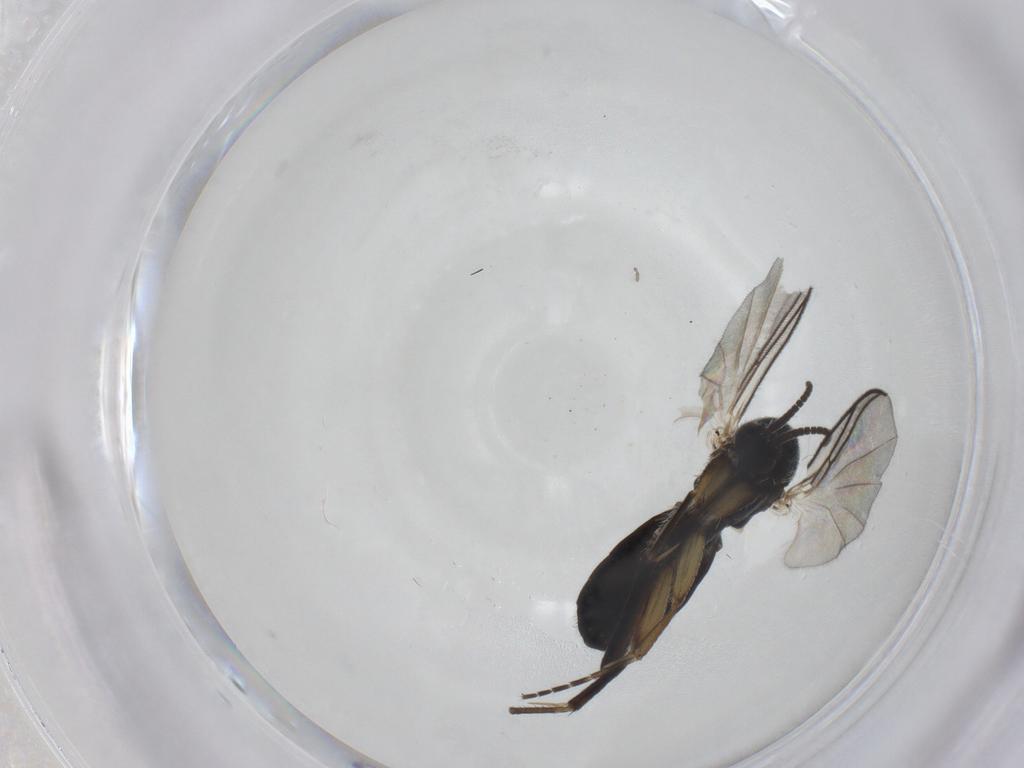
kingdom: Animalia
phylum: Arthropoda
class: Insecta
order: Diptera
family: Mycetophilidae
